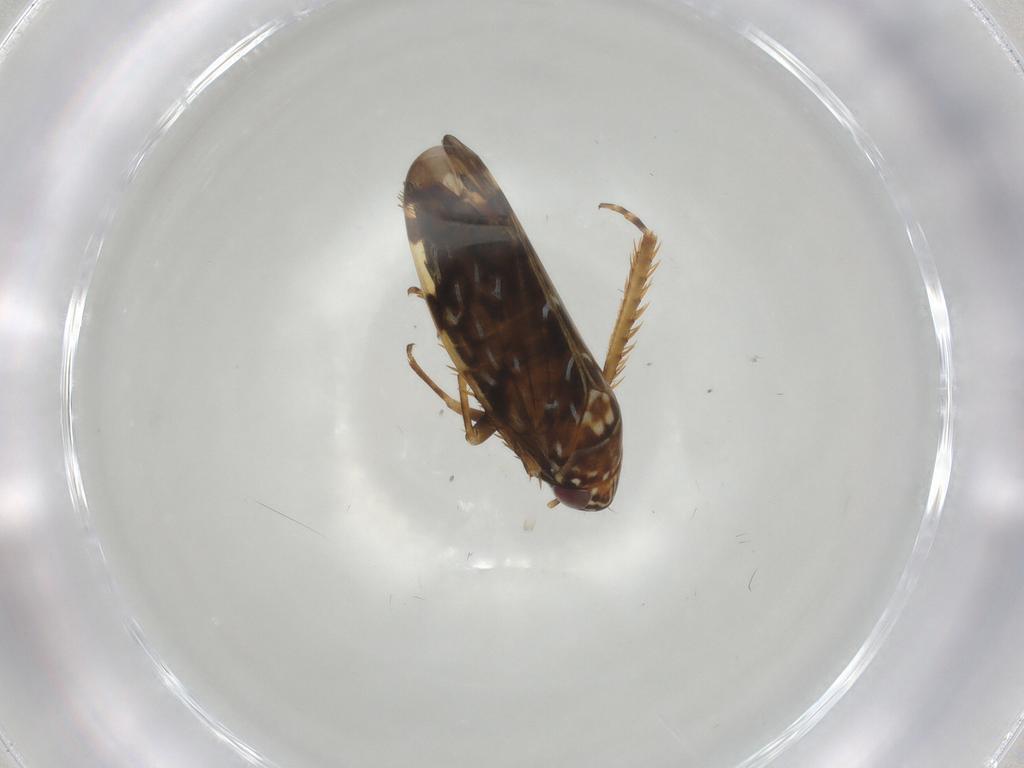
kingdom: Animalia
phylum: Arthropoda
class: Insecta
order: Hemiptera
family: Cicadellidae
